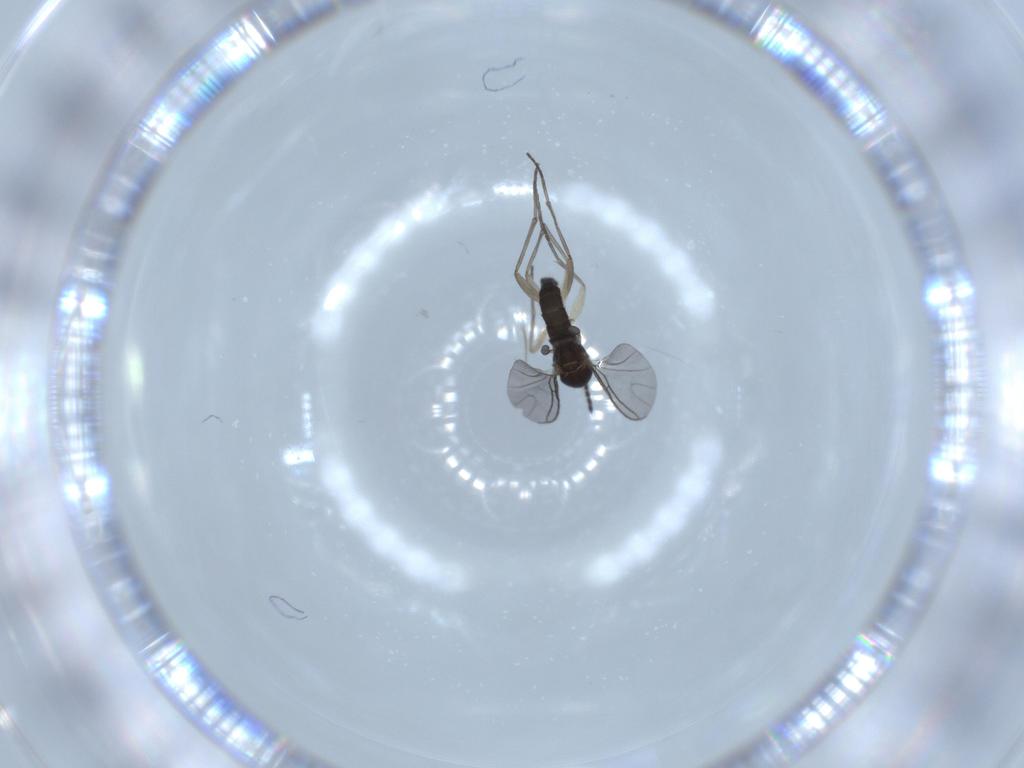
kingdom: Animalia
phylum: Arthropoda
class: Insecta
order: Diptera
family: Sciaridae
